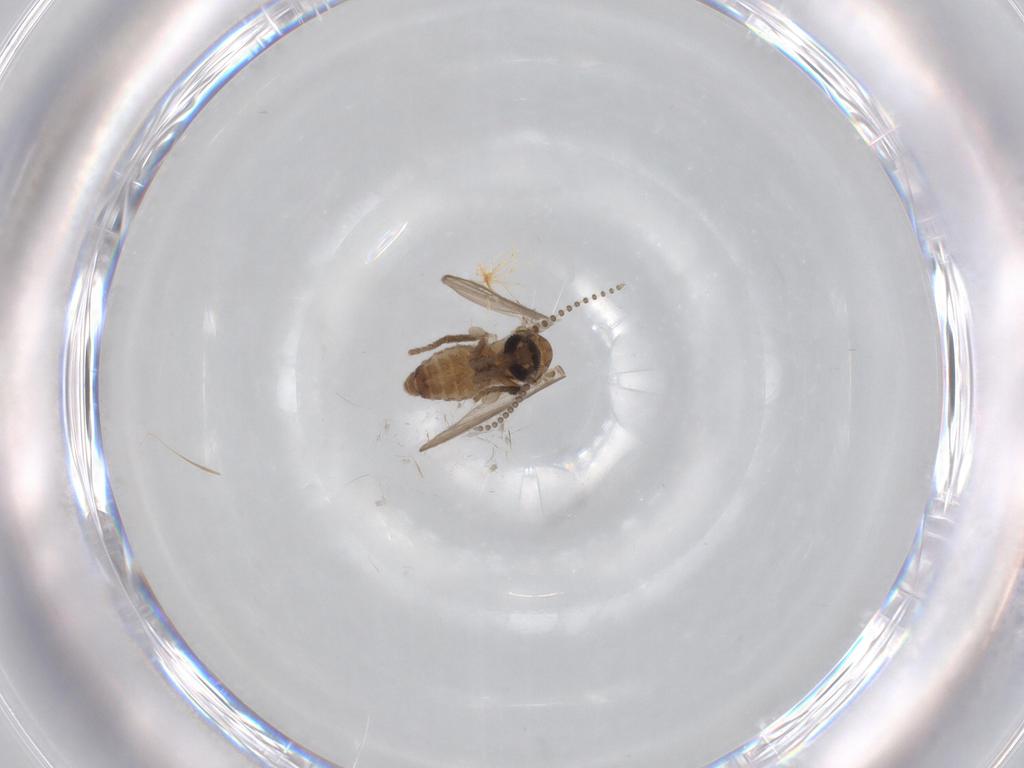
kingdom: Animalia
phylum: Arthropoda
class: Insecta
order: Diptera
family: Psychodidae
